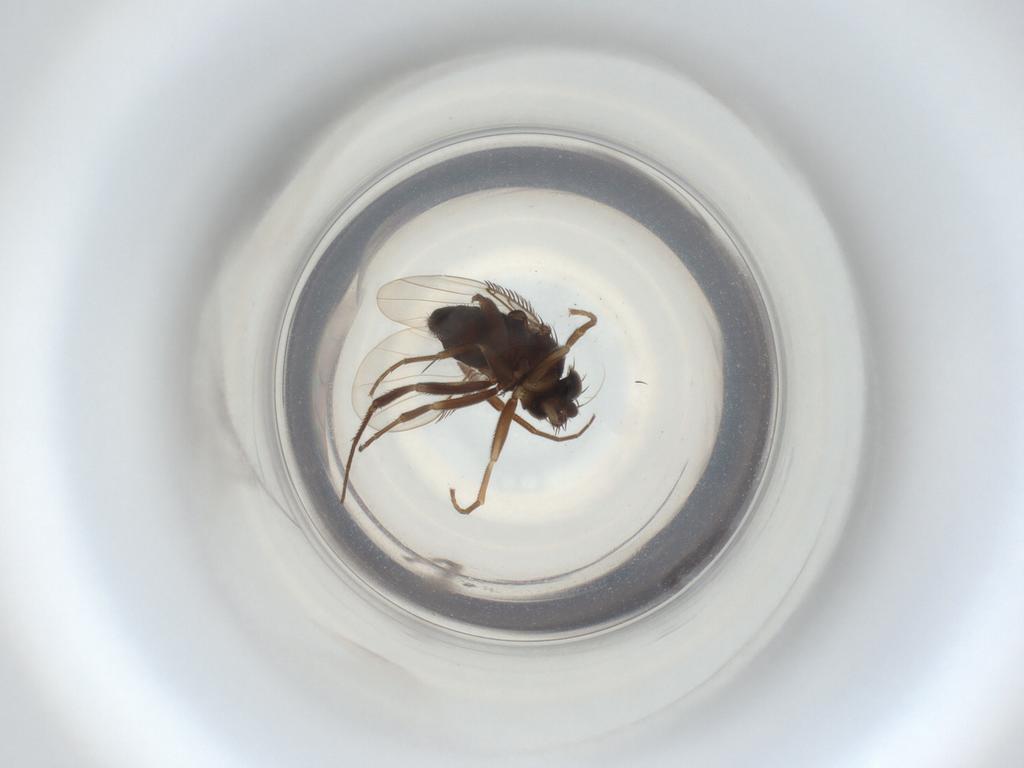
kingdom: Animalia
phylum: Arthropoda
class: Insecta
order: Diptera
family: Phoridae
